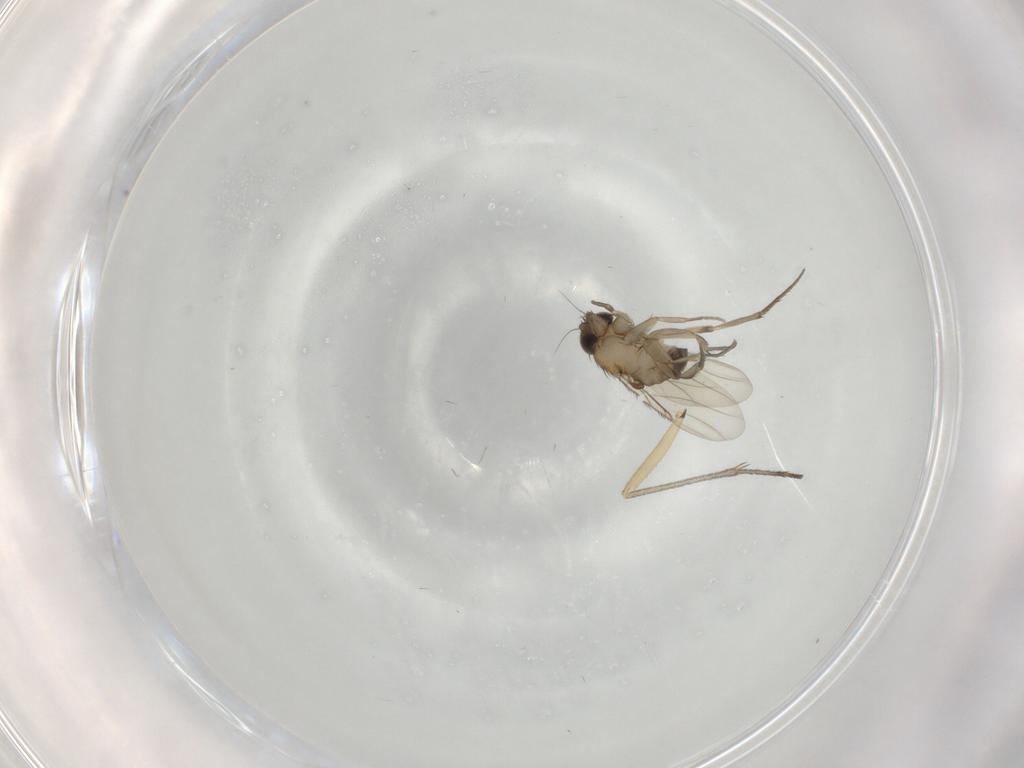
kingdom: Animalia
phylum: Arthropoda
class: Insecta
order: Diptera
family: Phoridae
